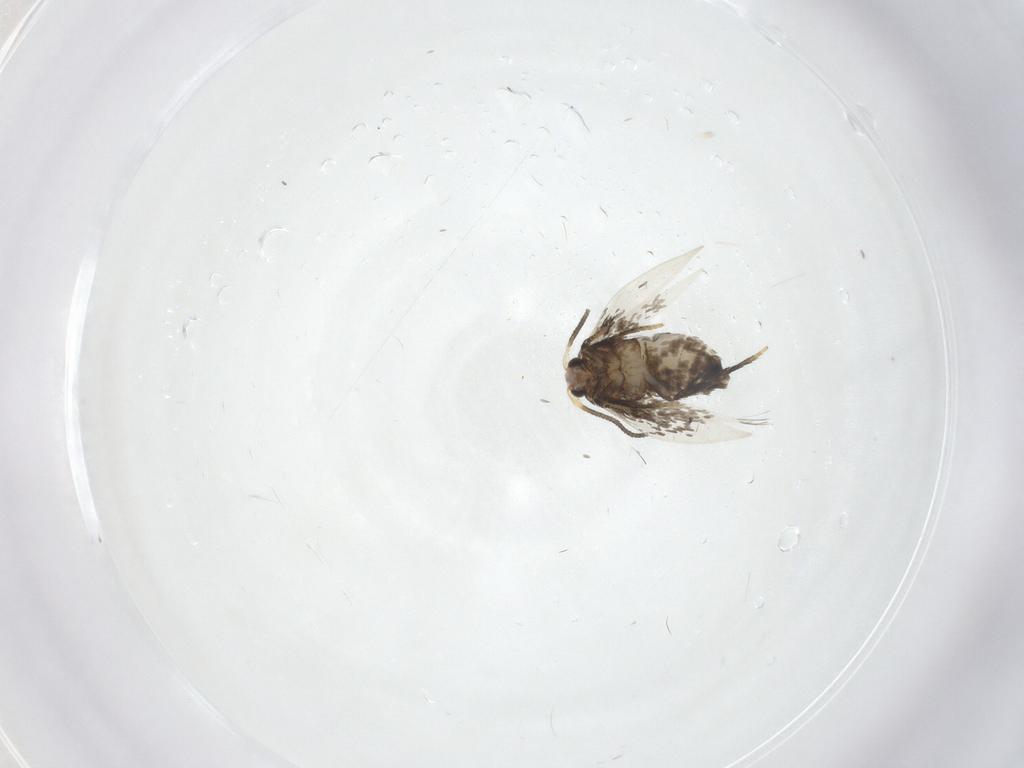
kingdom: Animalia
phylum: Arthropoda
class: Insecta
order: Lepidoptera
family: Nepticulidae
